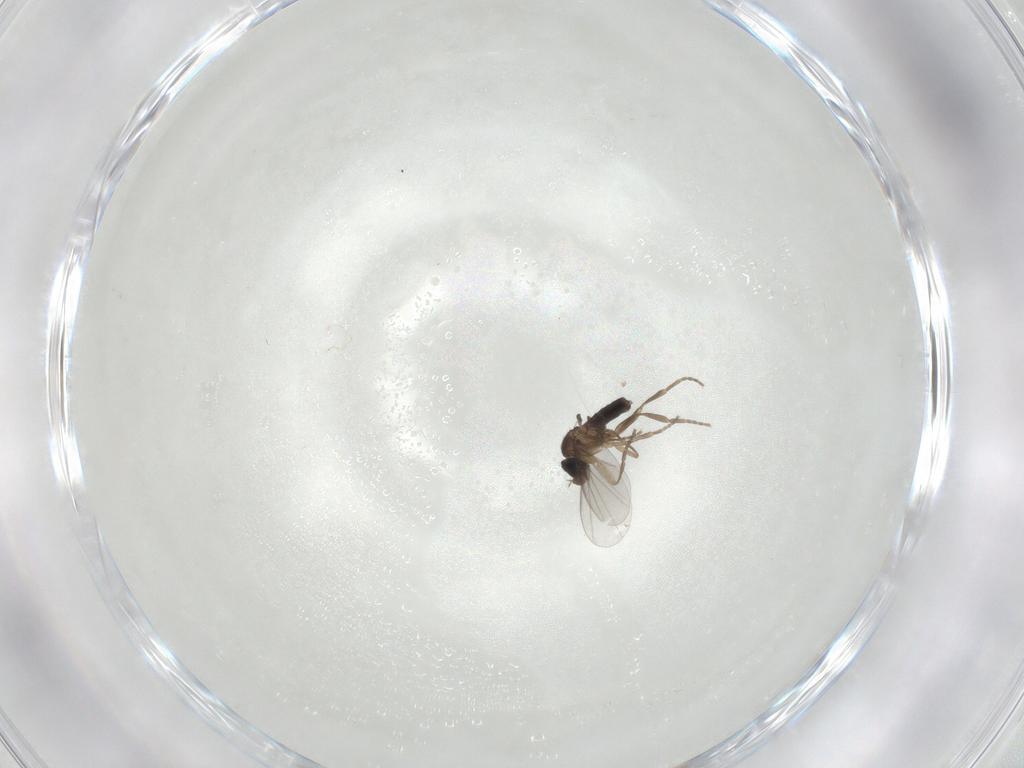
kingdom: Animalia
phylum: Arthropoda
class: Insecta
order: Diptera
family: Phoridae
